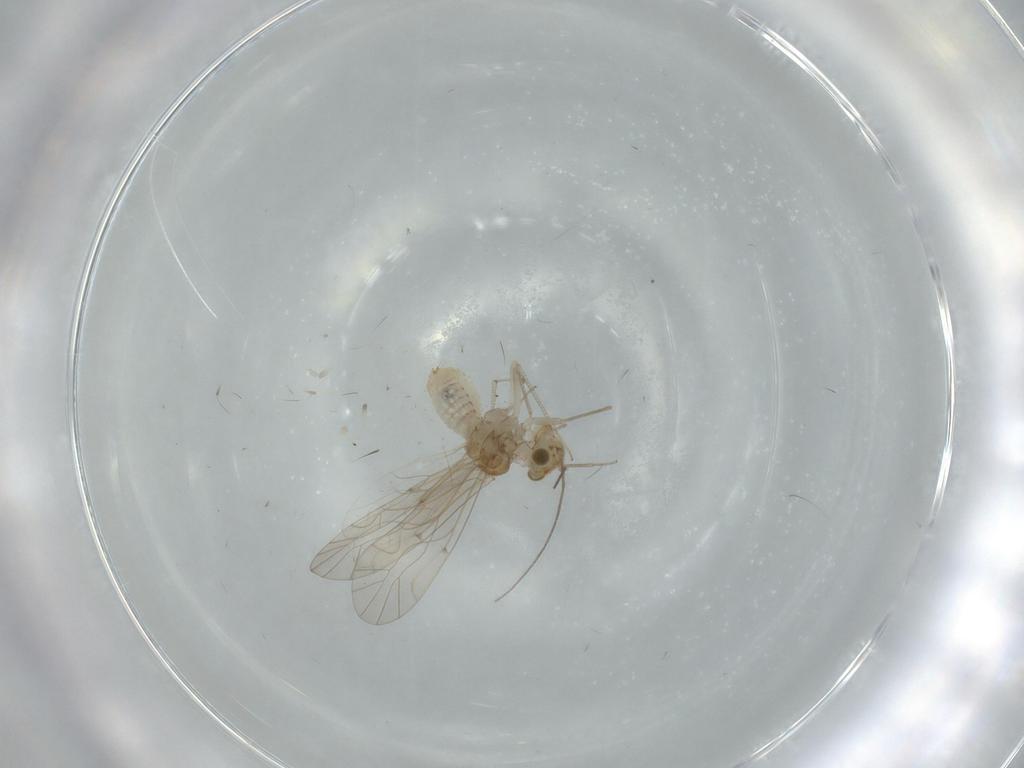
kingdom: Animalia
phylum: Arthropoda
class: Insecta
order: Psocodea
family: Lachesillidae
